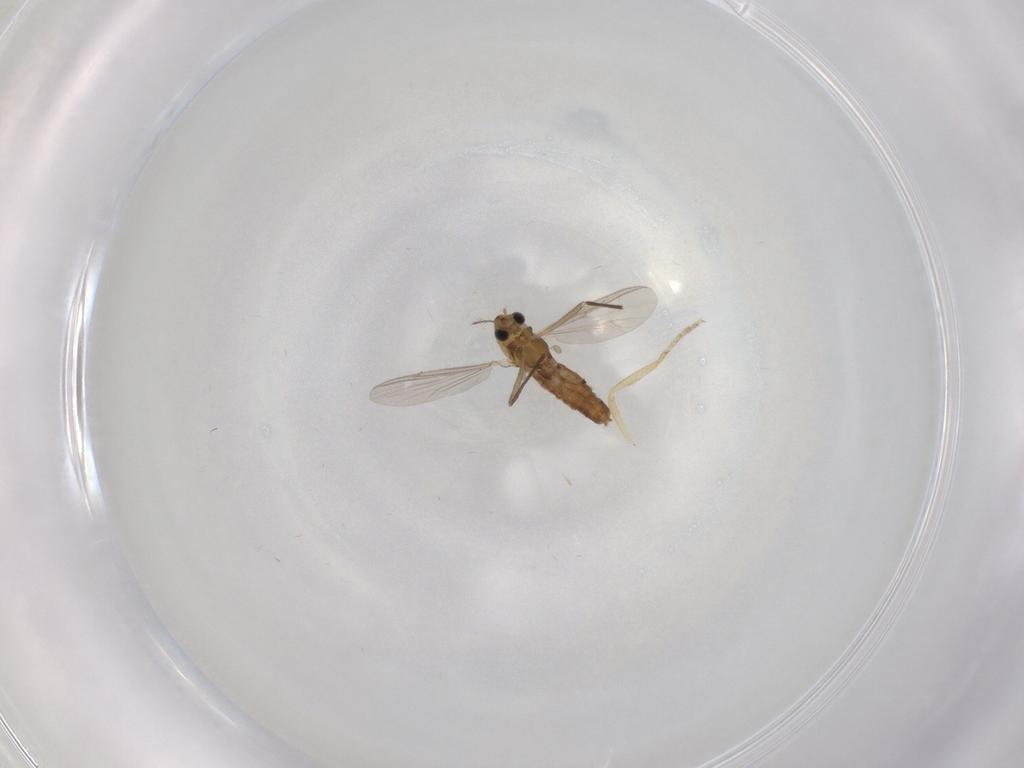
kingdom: Animalia
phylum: Arthropoda
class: Insecta
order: Diptera
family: Chironomidae
